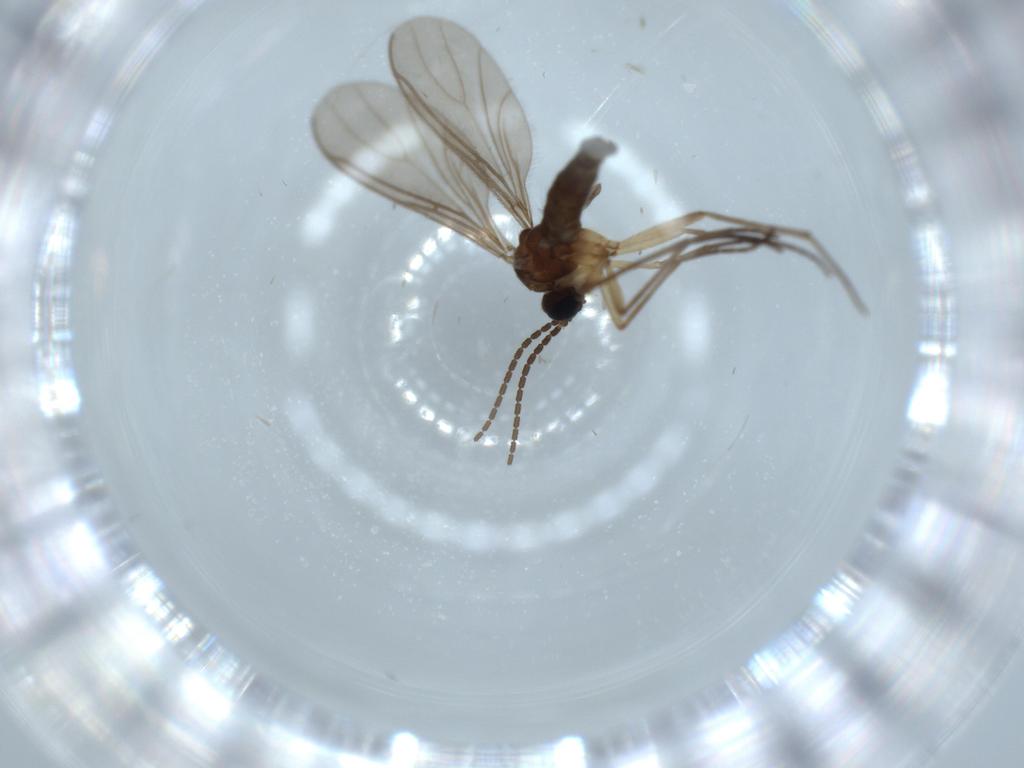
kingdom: Animalia
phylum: Arthropoda
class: Insecta
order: Diptera
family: Sciaridae
